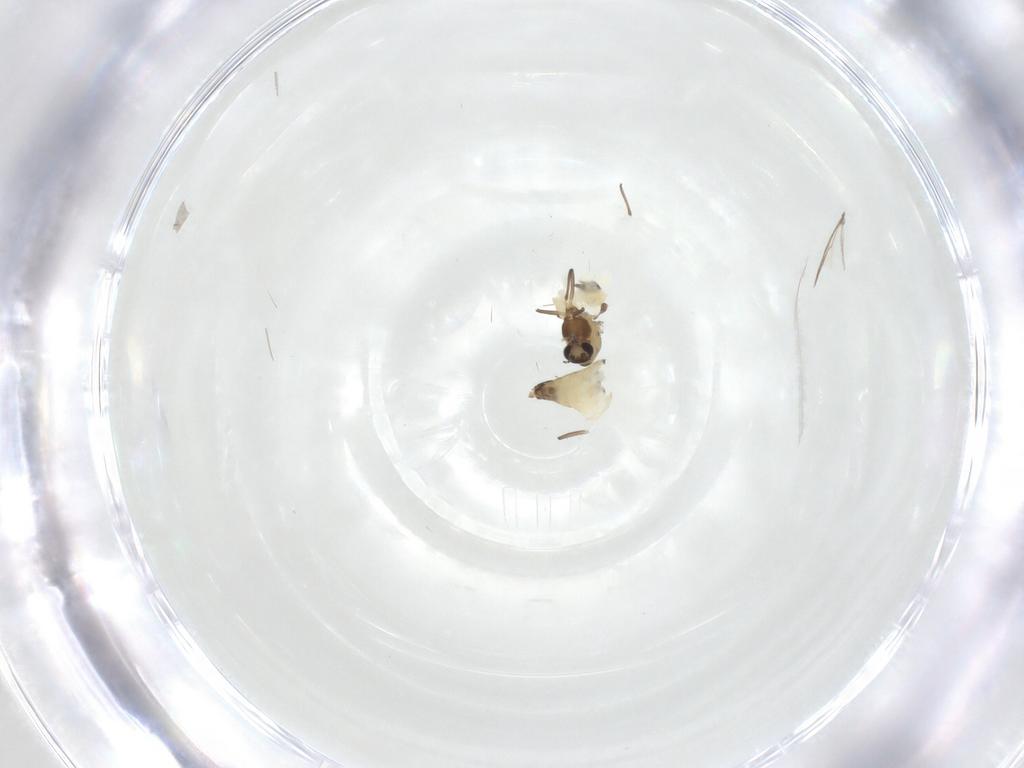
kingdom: Animalia
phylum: Arthropoda
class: Insecta
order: Diptera
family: Chironomidae
